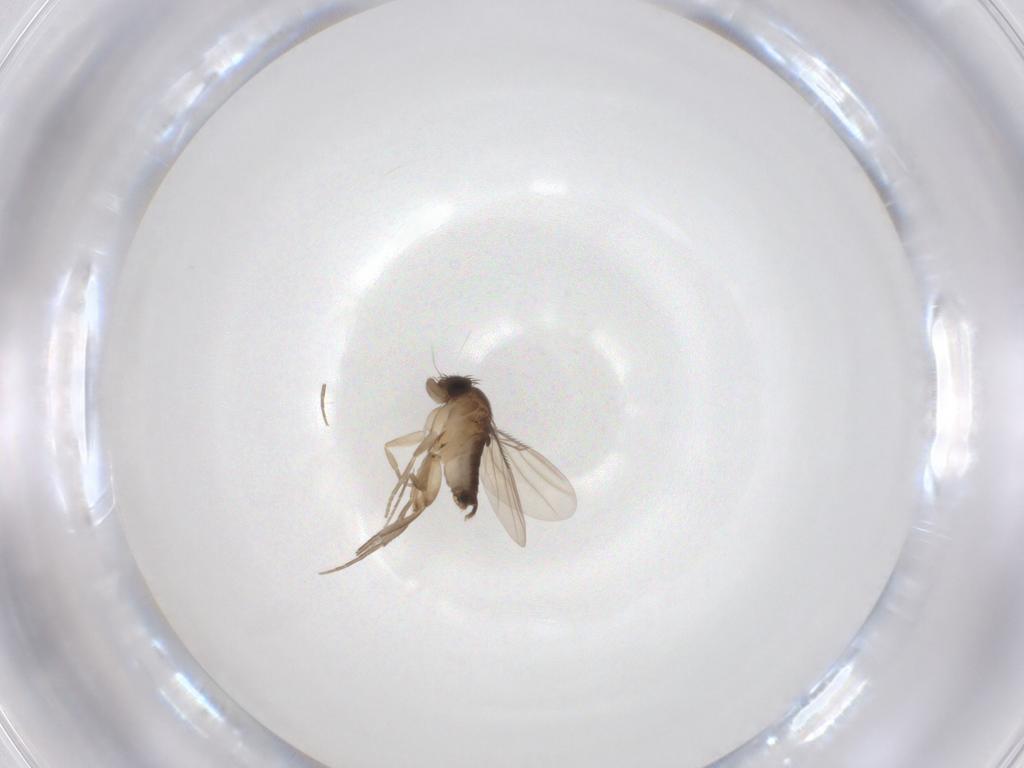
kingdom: Animalia
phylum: Arthropoda
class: Insecta
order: Diptera
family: Phoridae
